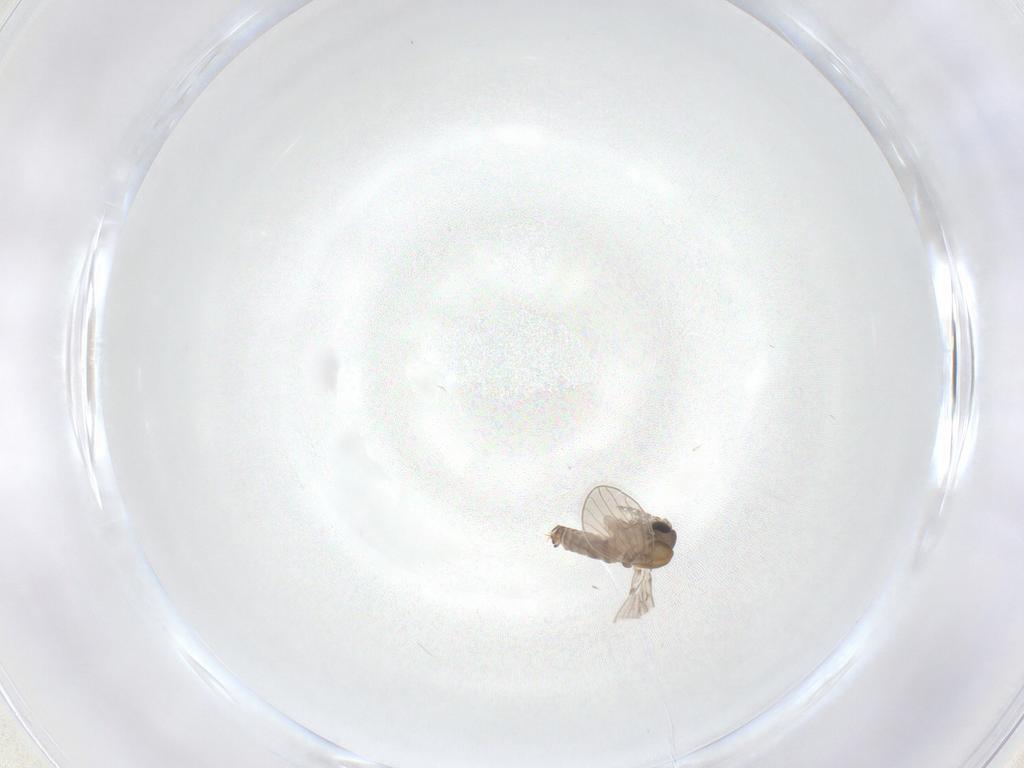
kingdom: Animalia
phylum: Arthropoda
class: Insecta
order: Diptera
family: Psychodidae
